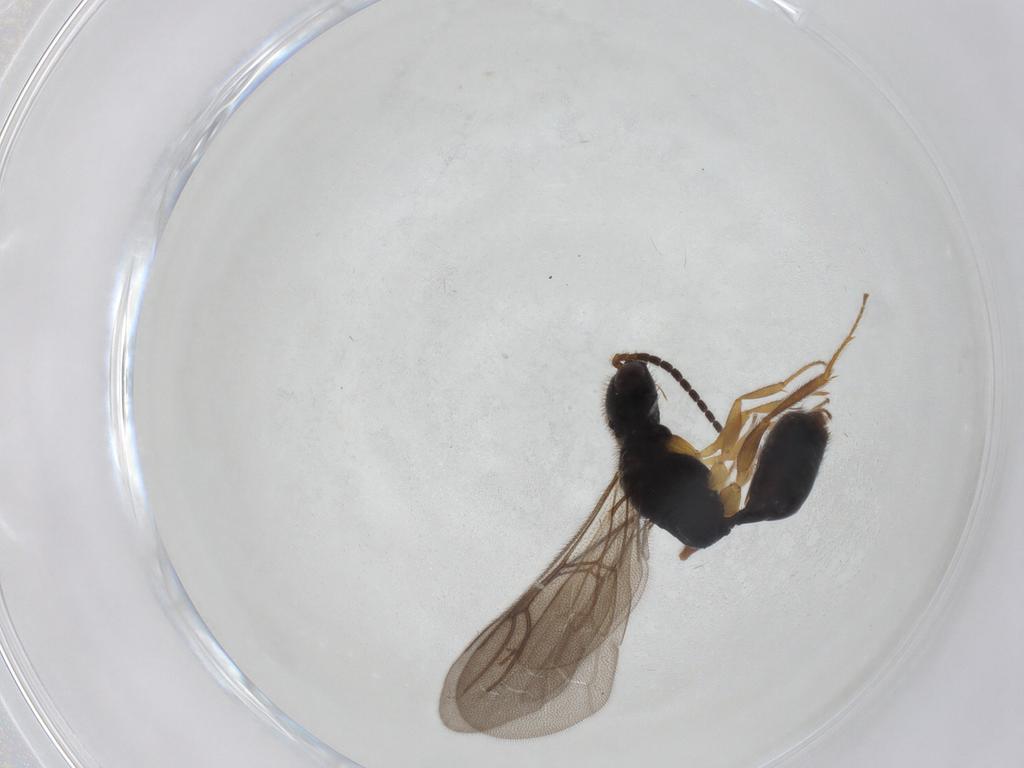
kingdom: Animalia
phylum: Arthropoda
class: Insecta
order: Hymenoptera
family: Bethylidae
